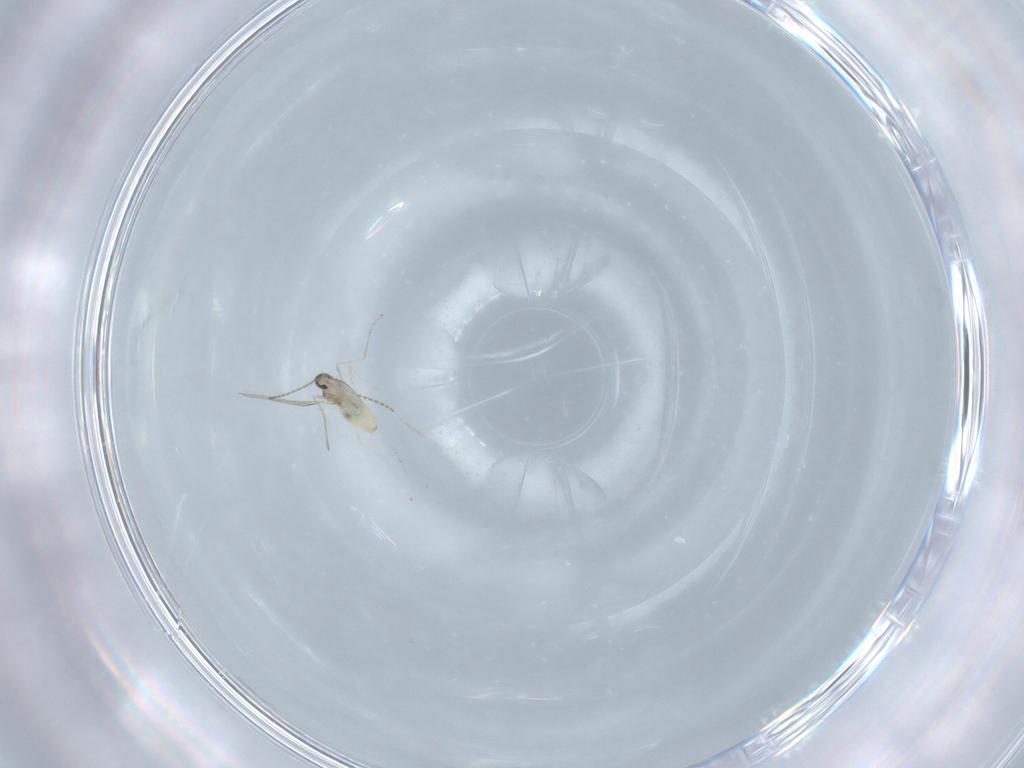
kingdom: Animalia
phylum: Arthropoda
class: Insecta
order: Diptera
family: Cecidomyiidae
